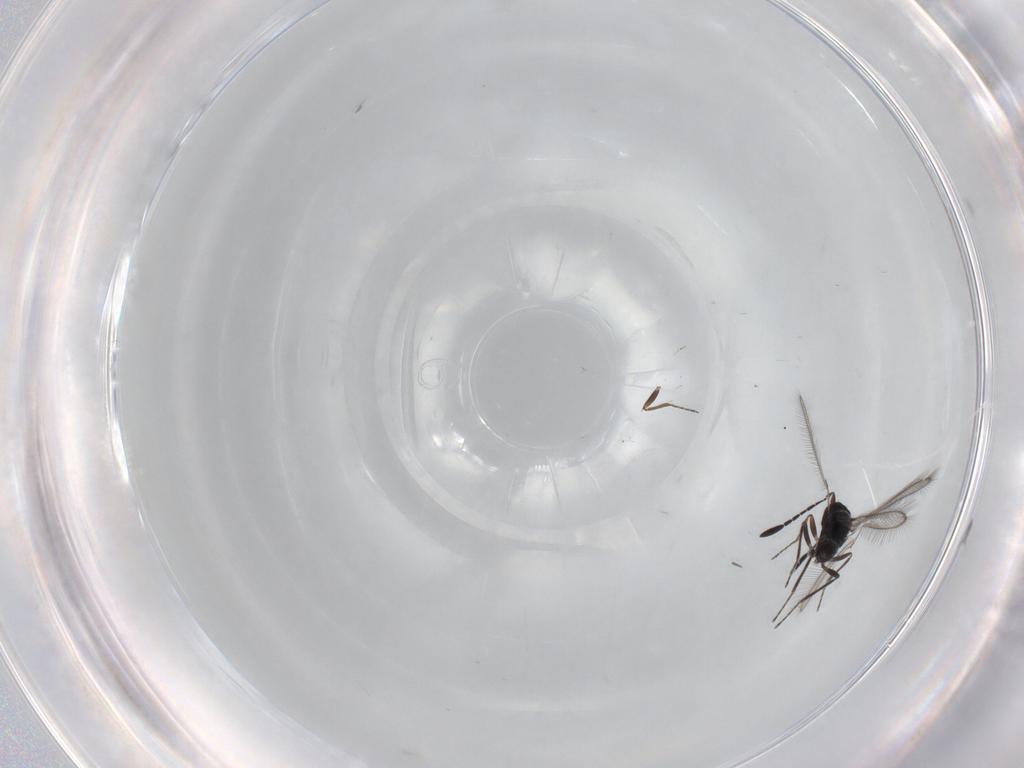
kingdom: Animalia
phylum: Arthropoda
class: Insecta
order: Hymenoptera
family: Mymaridae
